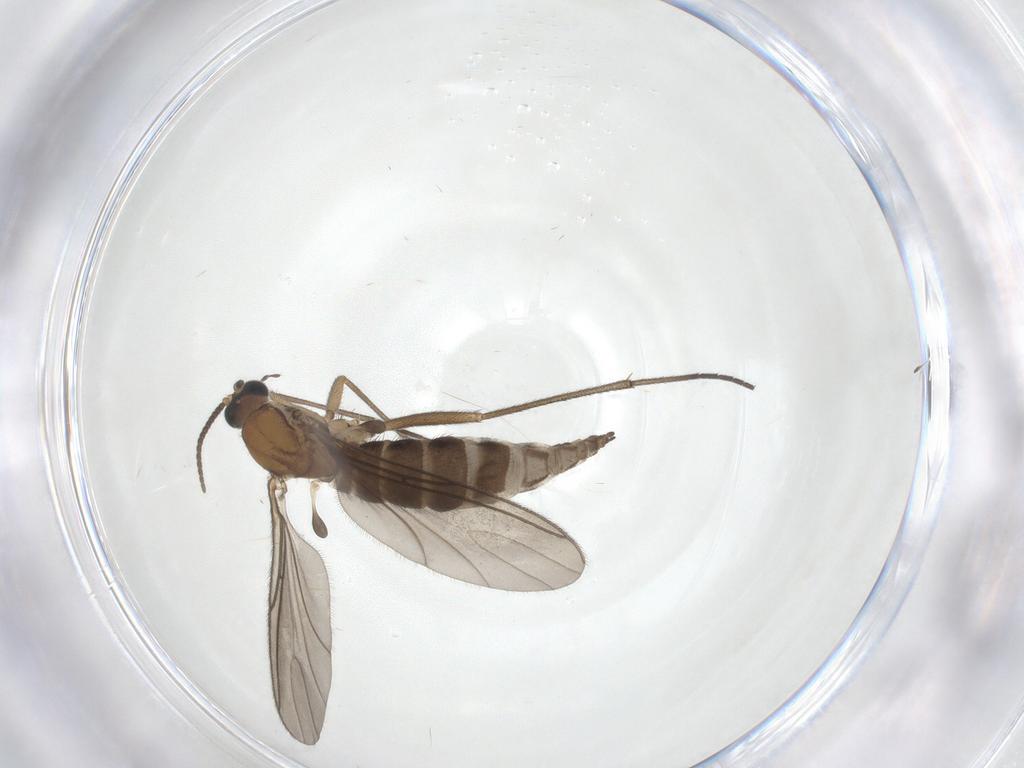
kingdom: Animalia
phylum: Arthropoda
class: Insecta
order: Diptera
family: Sciaridae
